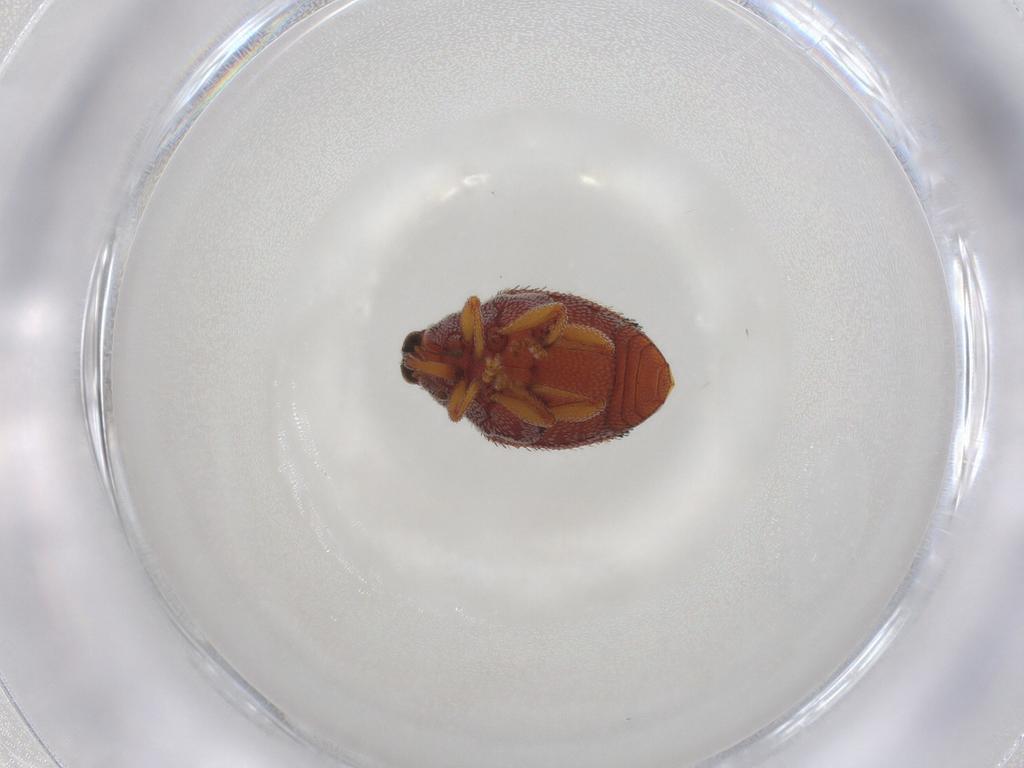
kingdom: Animalia
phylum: Arthropoda
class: Insecta
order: Coleoptera
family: Curculionidae
